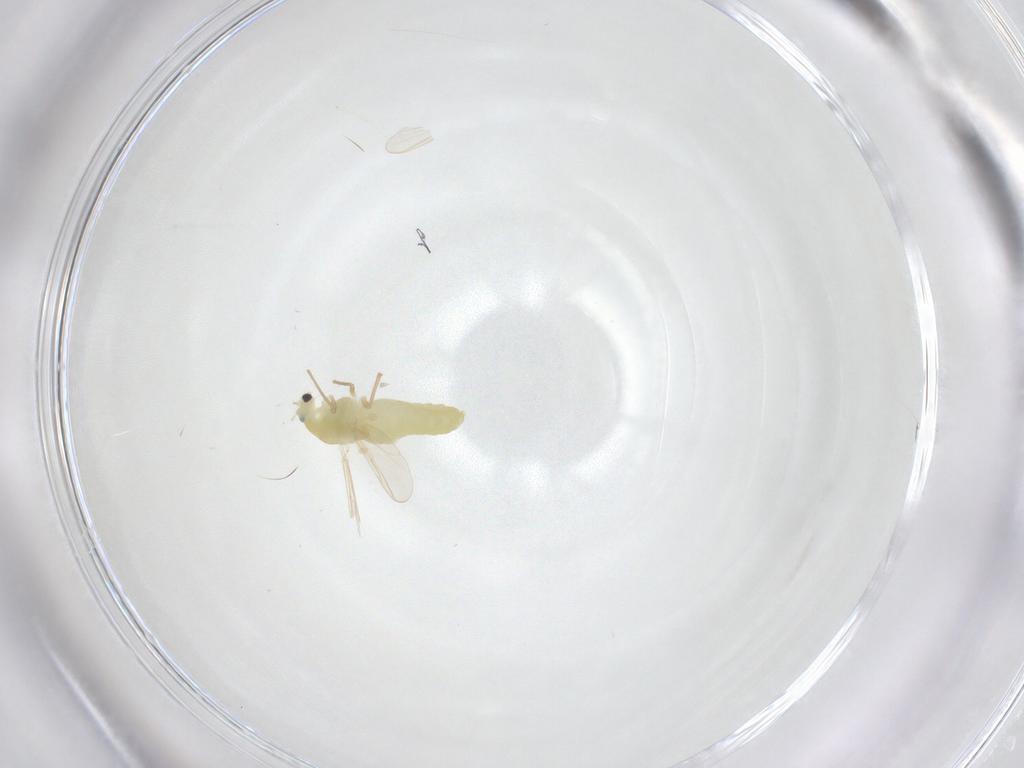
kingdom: Animalia
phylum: Arthropoda
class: Insecta
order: Diptera
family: Chironomidae
